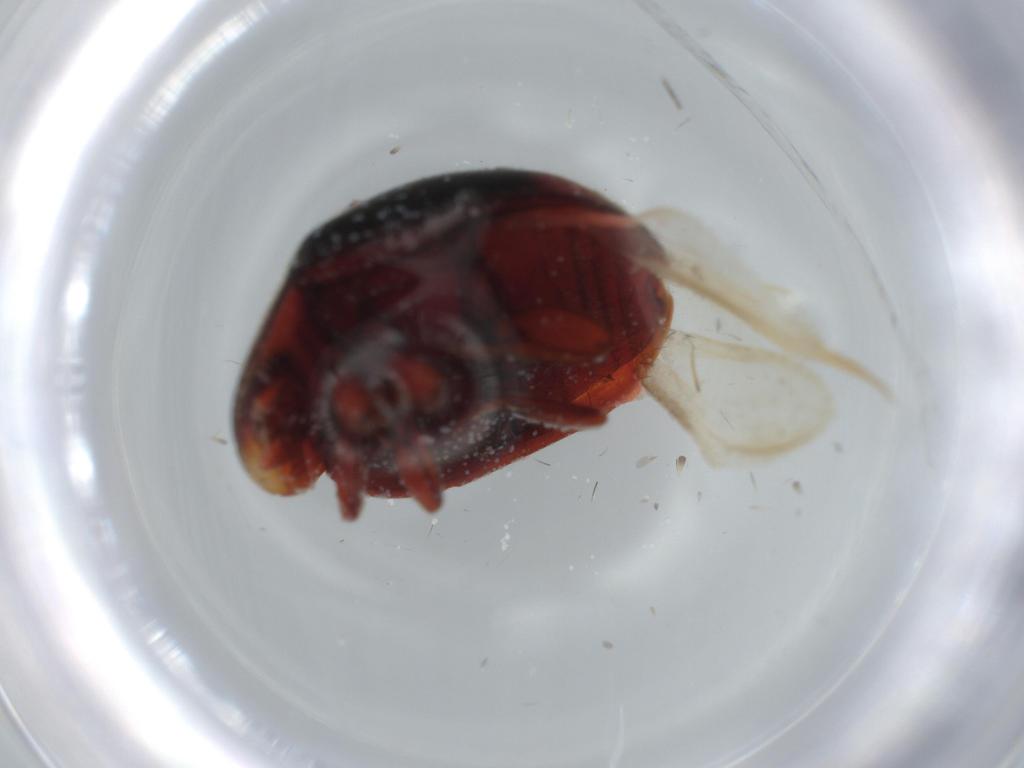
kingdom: Animalia
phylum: Arthropoda
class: Insecta
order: Coleoptera
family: Coccinellidae
